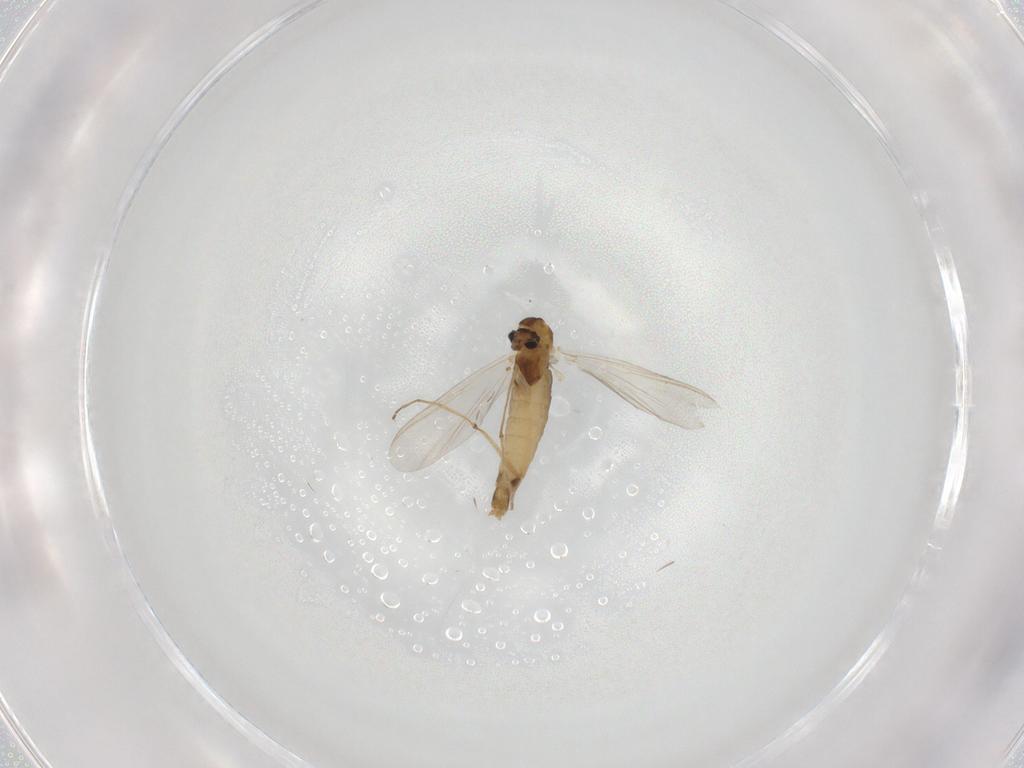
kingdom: Animalia
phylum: Arthropoda
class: Insecta
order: Diptera
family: Chironomidae
